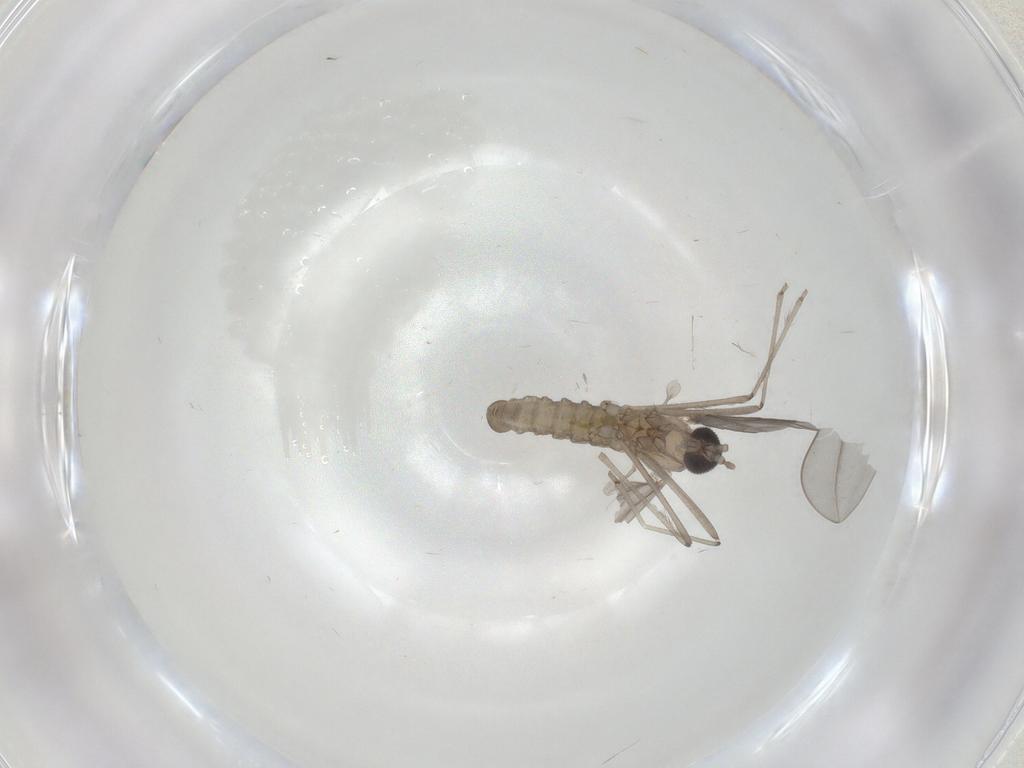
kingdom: Animalia
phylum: Arthropoda
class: Insecta
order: Diptera
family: Cecidomyiidae
